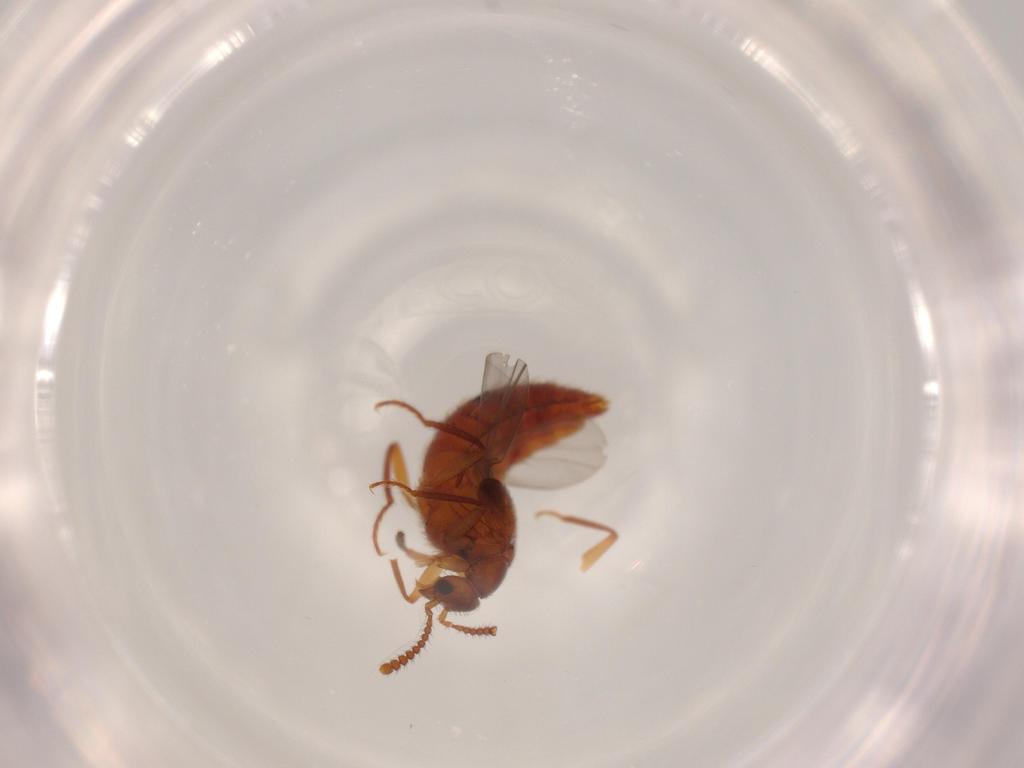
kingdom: Animalia
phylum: Arthropoda
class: Insecta
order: Coleoptera
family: Staphylinidae
